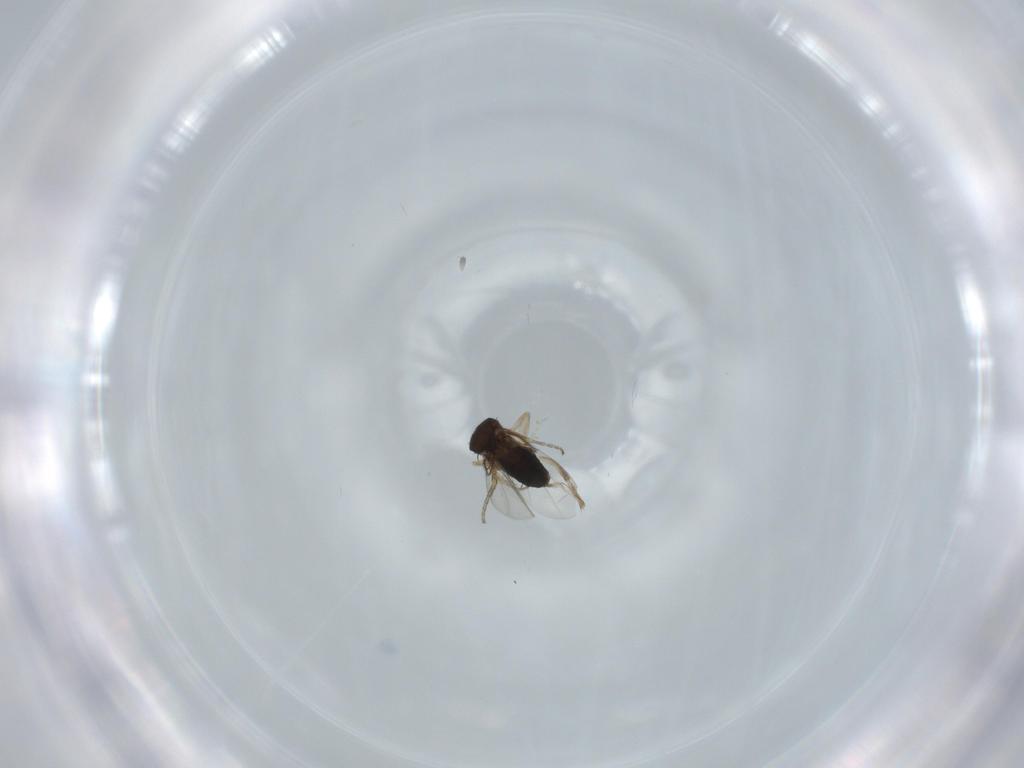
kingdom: Animalia
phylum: Arthropoda
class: Insecta
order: Diptera
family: Phoridae
